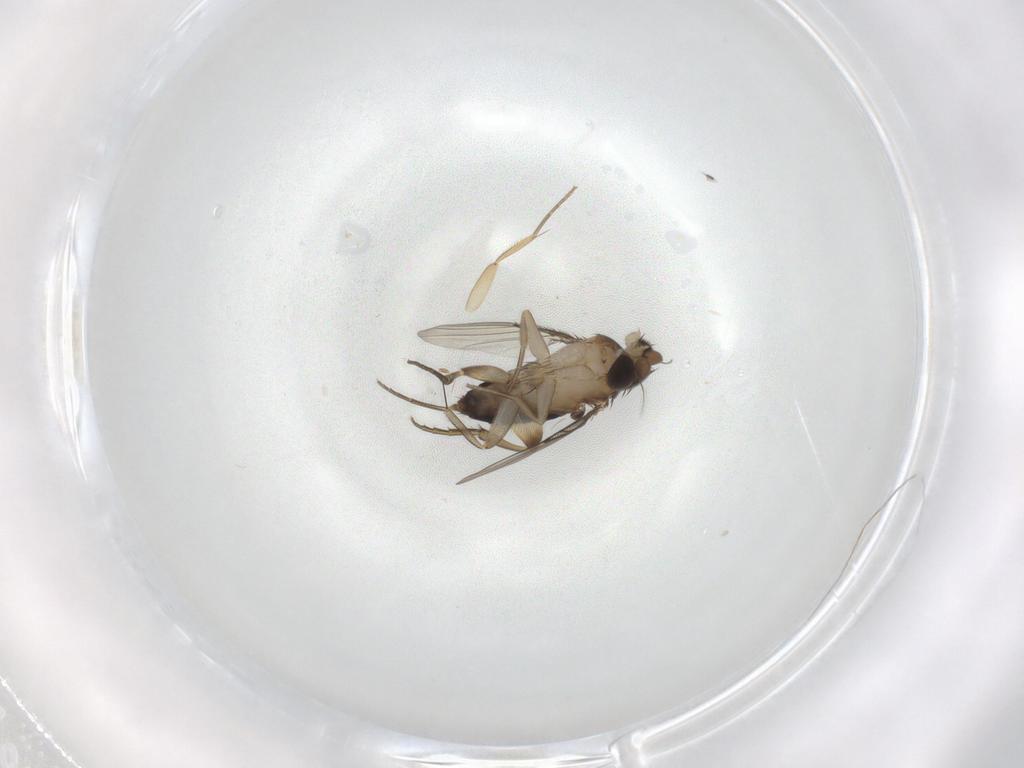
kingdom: Animalia
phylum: Arthropoda
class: Insecta
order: Diptera
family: Phoridae
